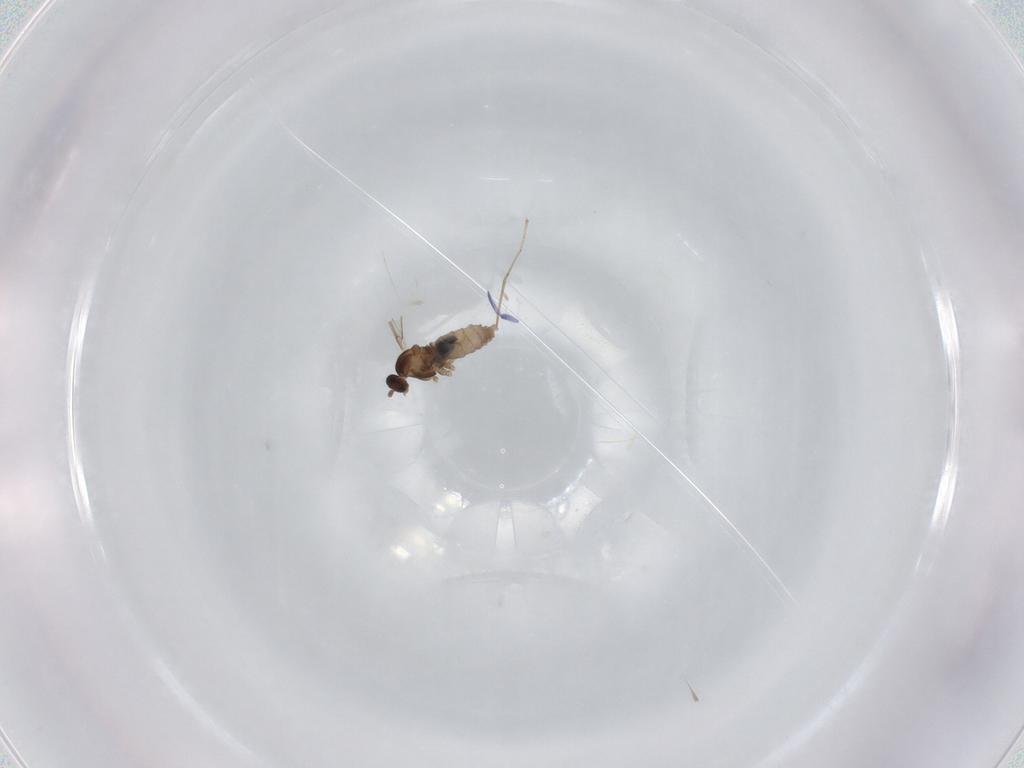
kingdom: Animalia
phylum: Arthropoda
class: Insecta
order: Diptera
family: Cecidomyiidae
